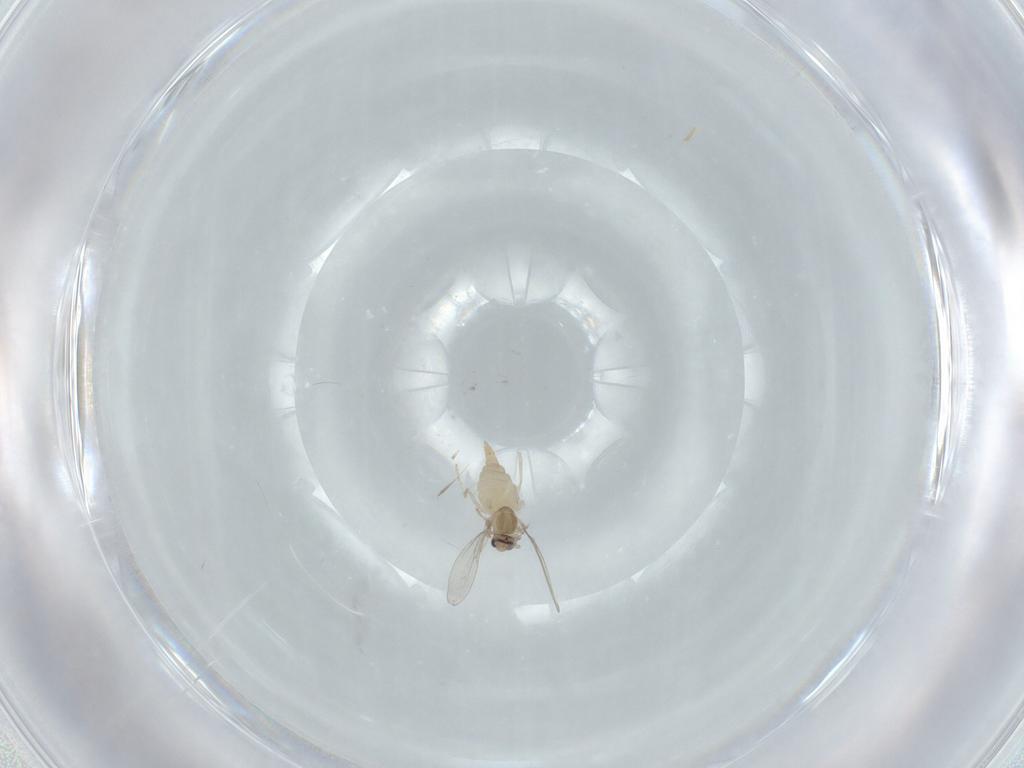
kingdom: Animalia
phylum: Arthropoda
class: Insecta
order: Diptera
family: Cecidomyiidae
